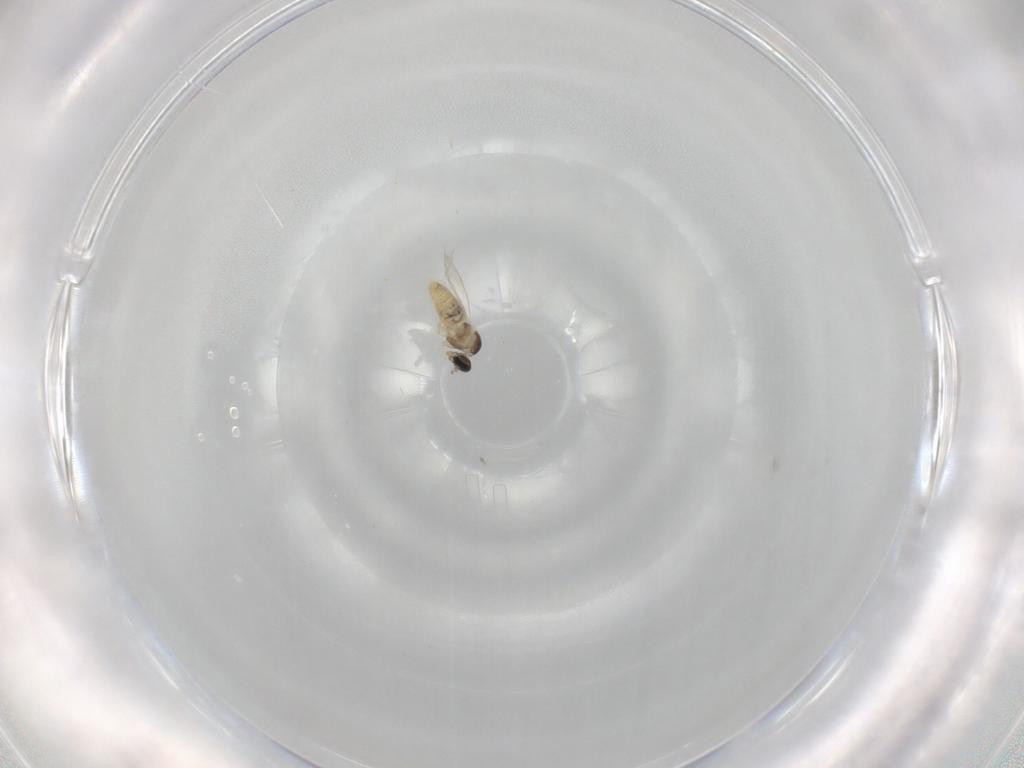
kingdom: Animalia
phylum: Arthropoda
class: Insecta
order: Diptera
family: Cecidomyiidae
